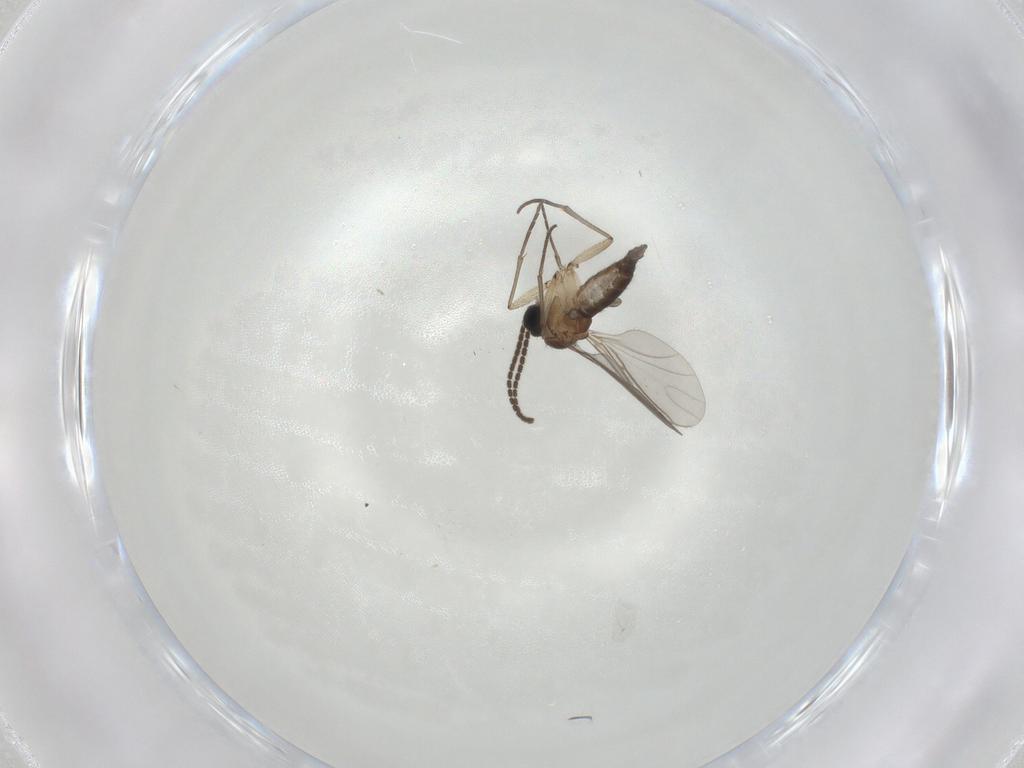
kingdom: Animalia
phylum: Arthropoda
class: Insecta
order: Diptera
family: Sciaridae
